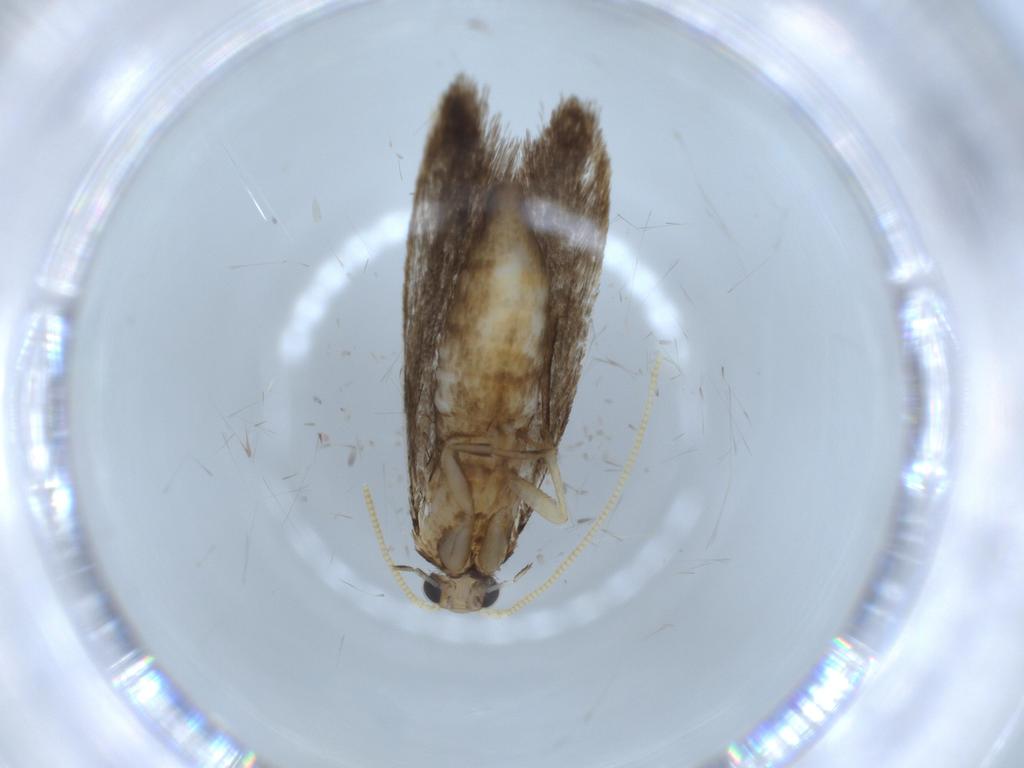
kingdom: Animalia
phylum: Arthropoda
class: Insecta
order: Lepidoptera
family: Tineidae
